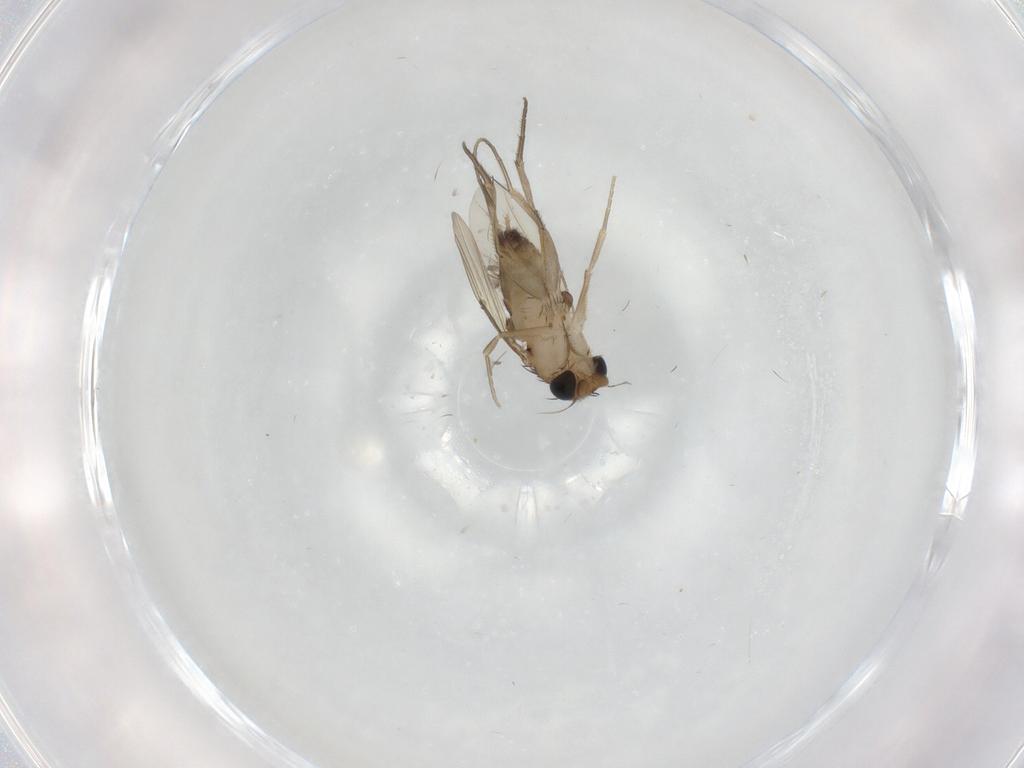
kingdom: Animalia
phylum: Arthropoda
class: Insecta
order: Diptera
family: Phoridae
